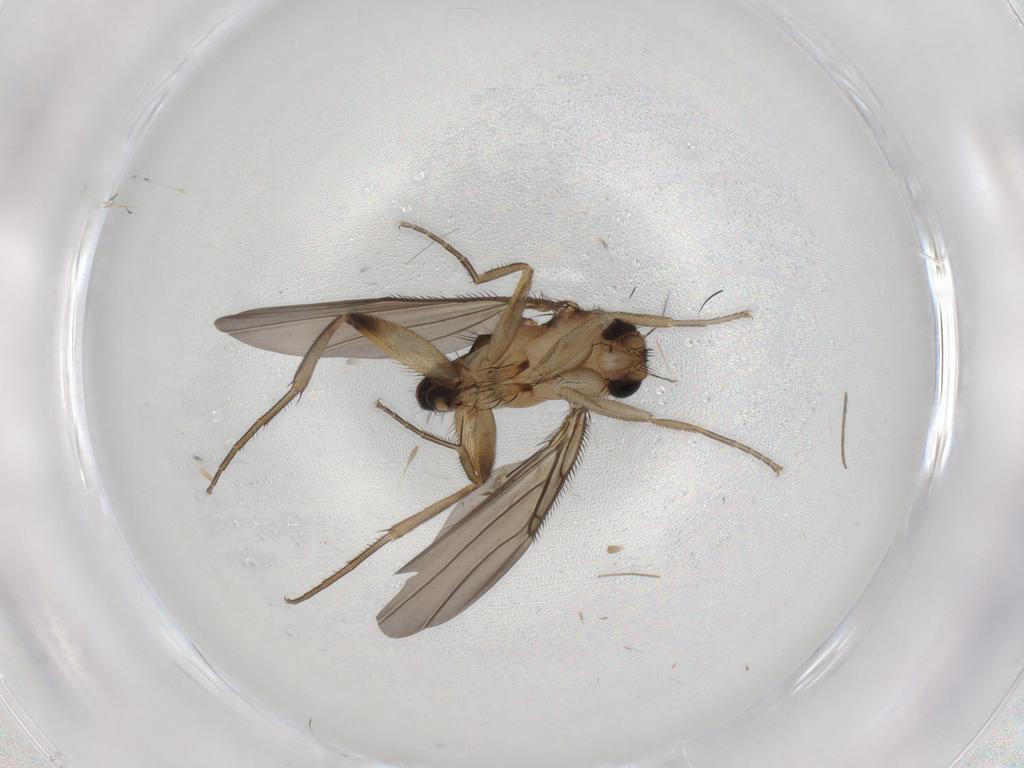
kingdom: Animalia
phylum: Arthropoda
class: Insecta
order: Diptera
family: Phoridae
